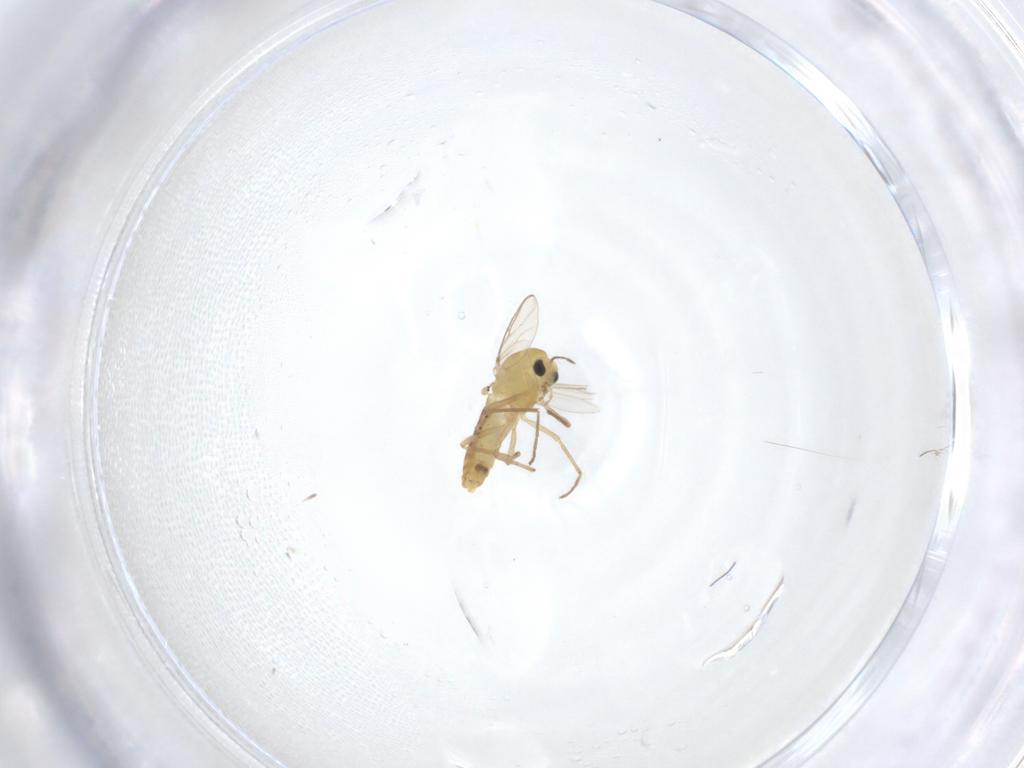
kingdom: Animalia
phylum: Arthropoda
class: Insecta
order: Diptera
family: Chironomidae
